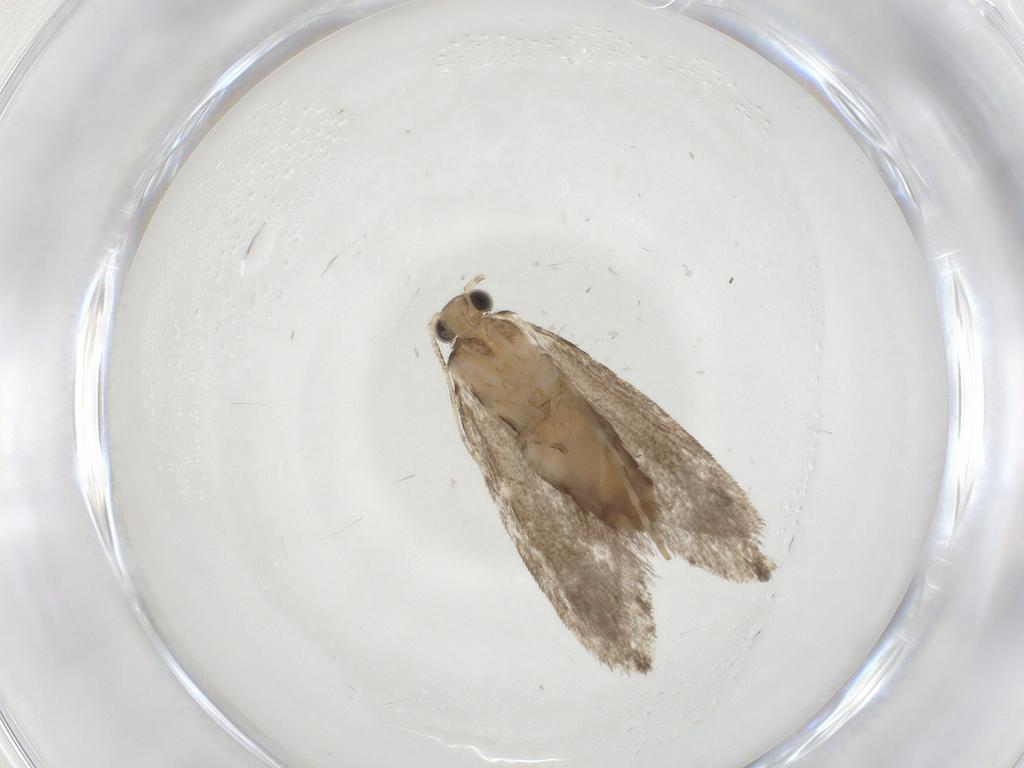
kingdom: Animalia
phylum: Arthropoda
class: Insecta
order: Lepidoptera
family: Tineidae
